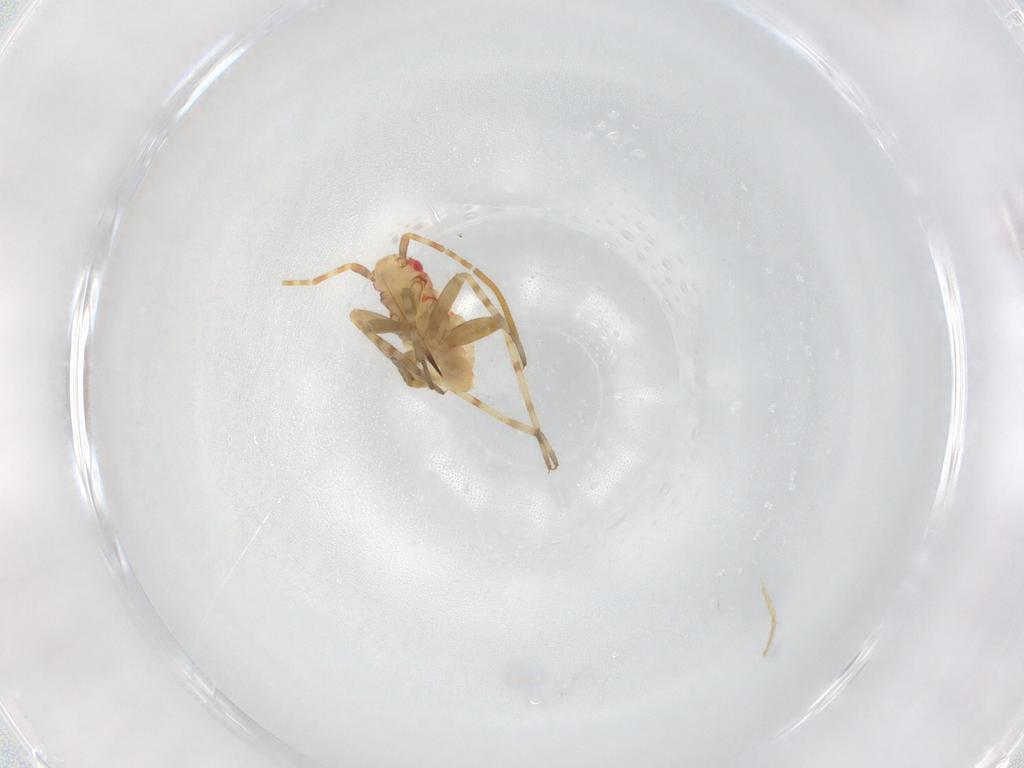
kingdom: Animalia
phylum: Arthropoda
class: Insecta
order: Hemiptera
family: Miridae
